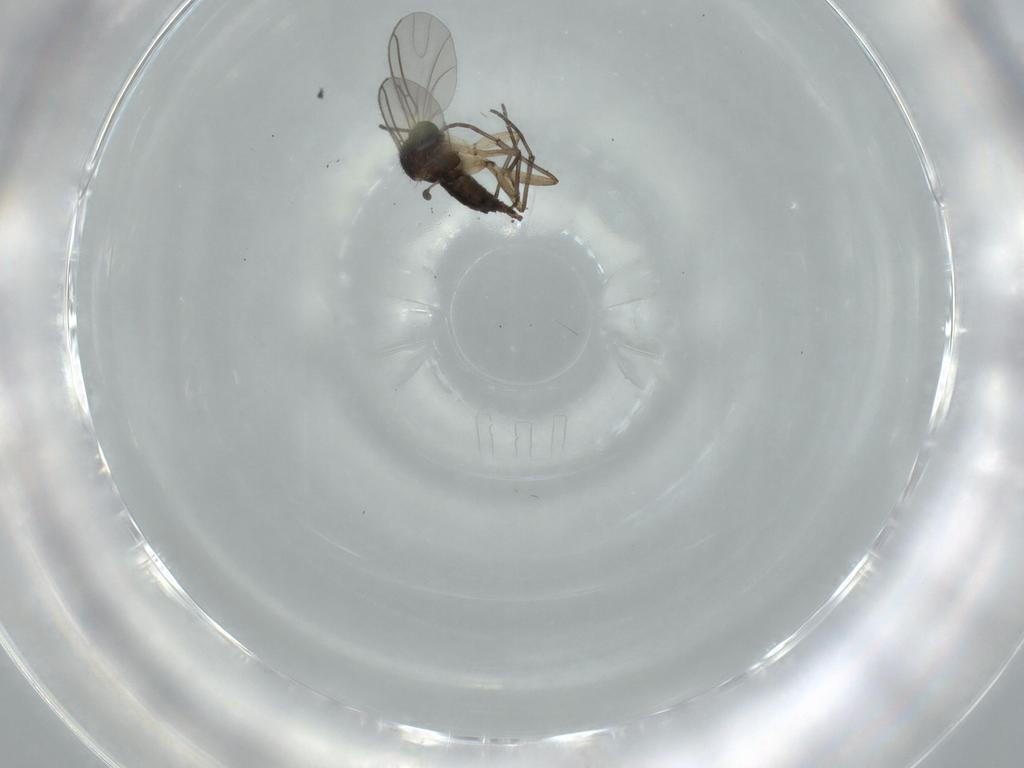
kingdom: Animalia
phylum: Arthropoda
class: Insecta
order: Diptera
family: Sciaridae
